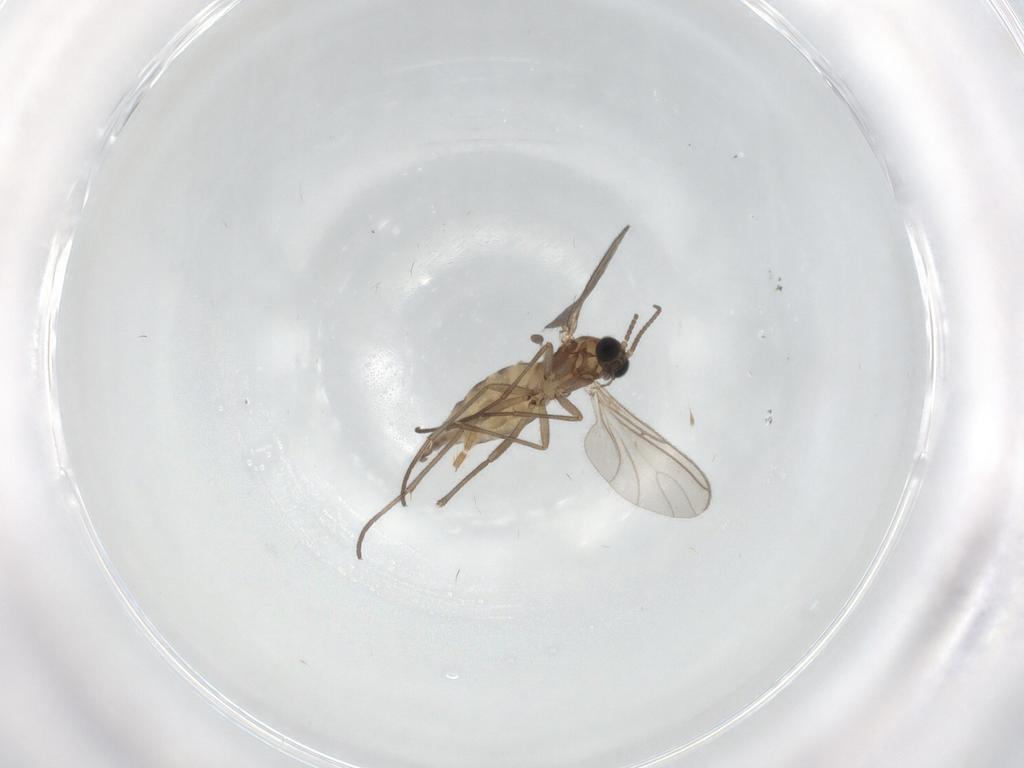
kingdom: Animalia
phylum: Arthropoda
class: Insecta
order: Diptera
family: Sciaridae
